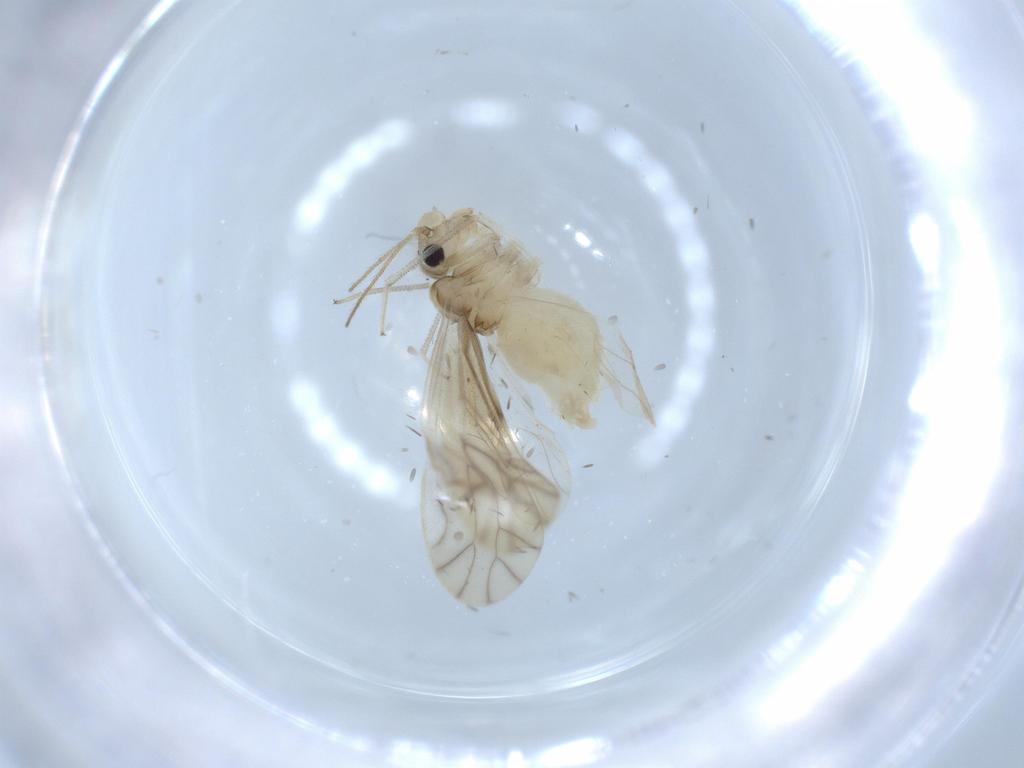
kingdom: Animalia
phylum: Arthropoda
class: Insecta
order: Psocodea
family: Caeciliusidae
